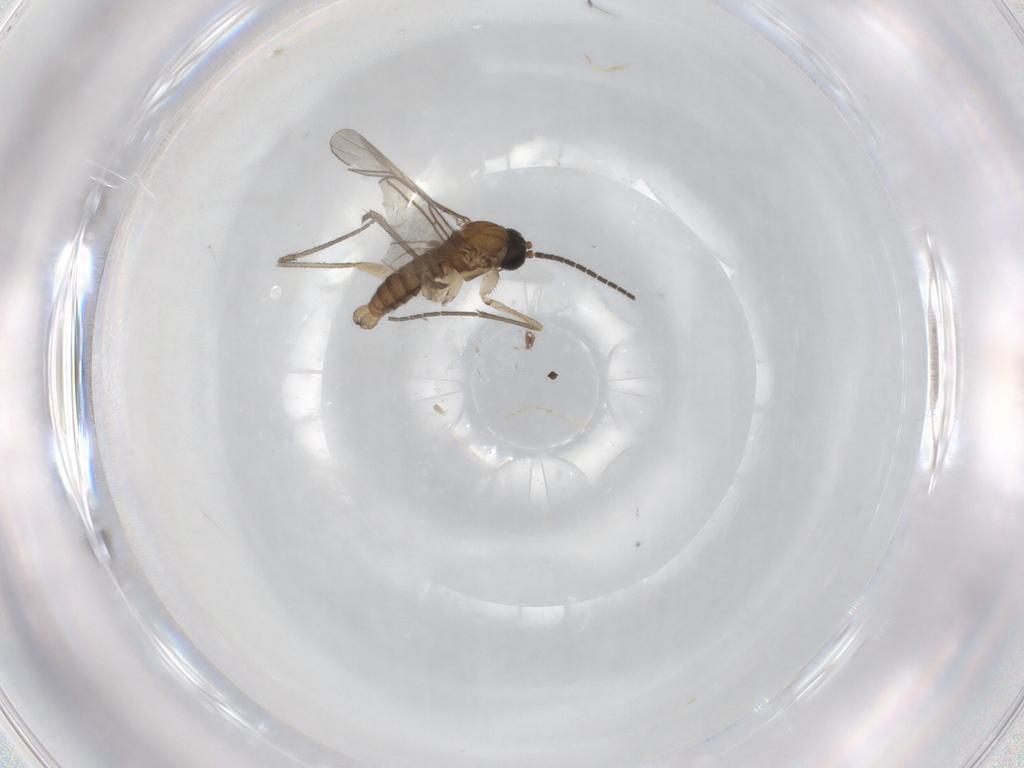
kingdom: Animalia
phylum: Arthropoda
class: Insecta
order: Diptera
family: Sciaridae
